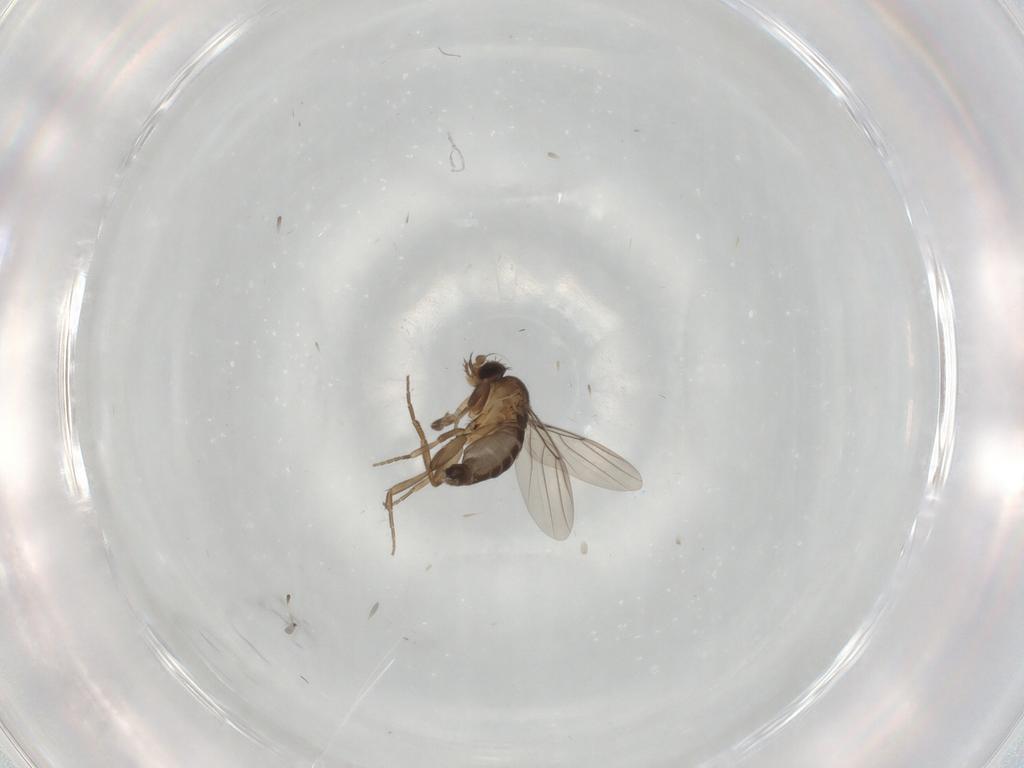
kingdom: Animalia
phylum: Arthropoda
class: Insecta
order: Diptera
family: Phoridae
